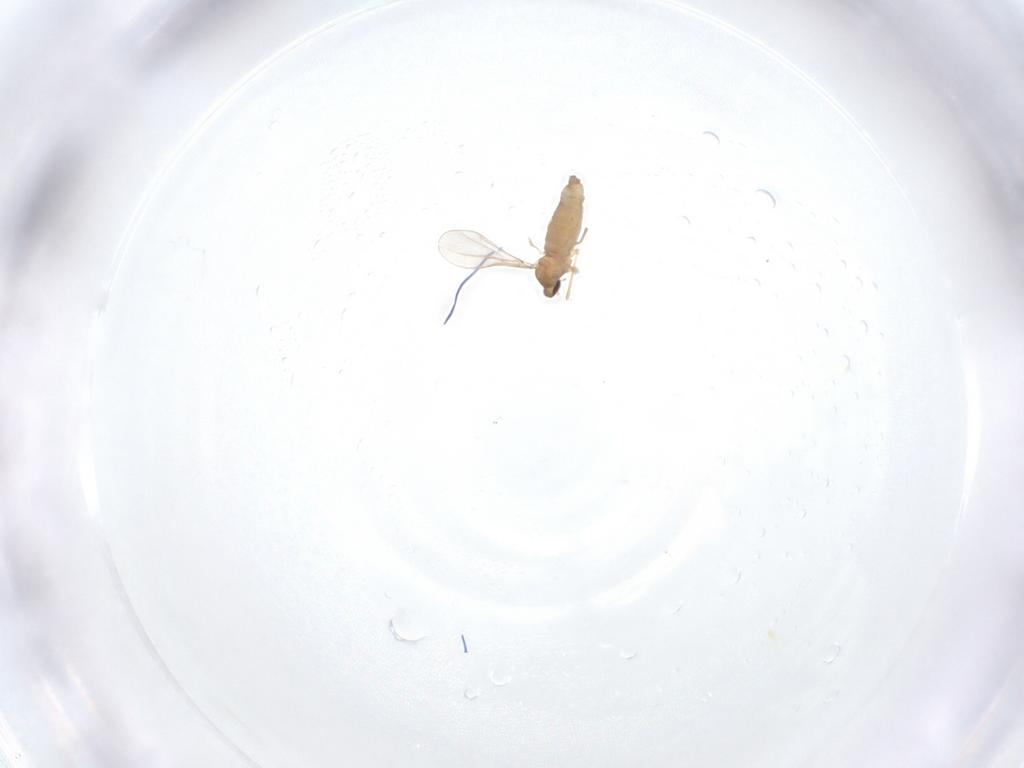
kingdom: Animalia
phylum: Arthropoda
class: Insecta
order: Diptera
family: Cecidomyiidae
